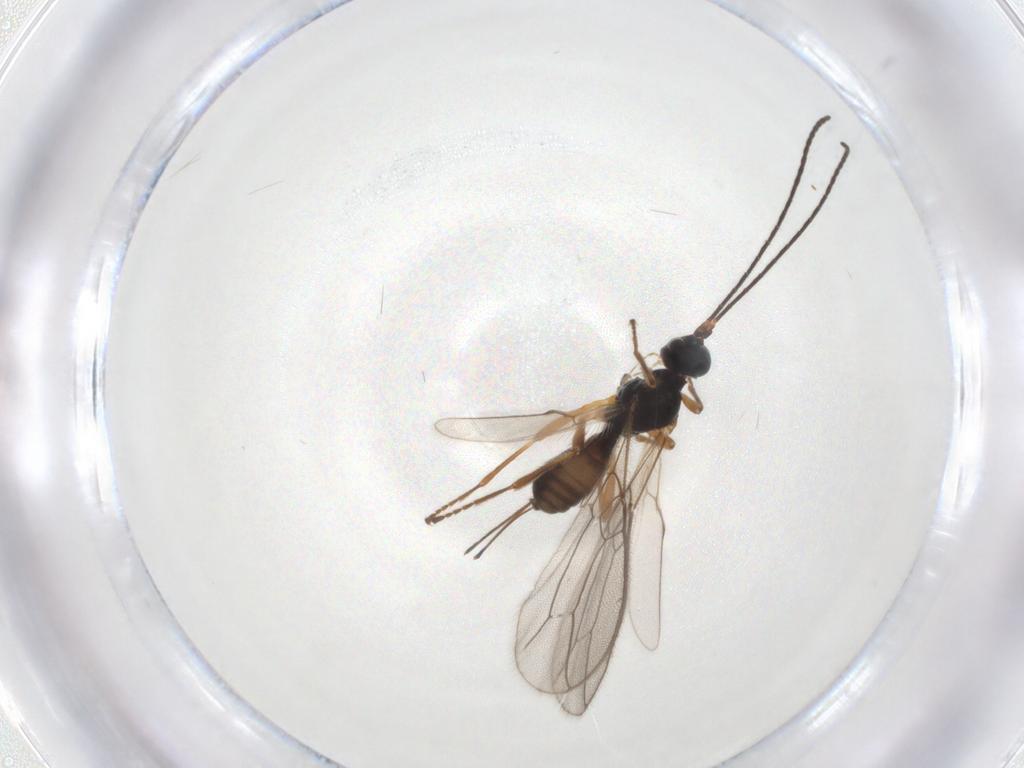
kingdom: Animalia
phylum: Arthropoda
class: Insecta
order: Hymenoptera
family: Braconidae
